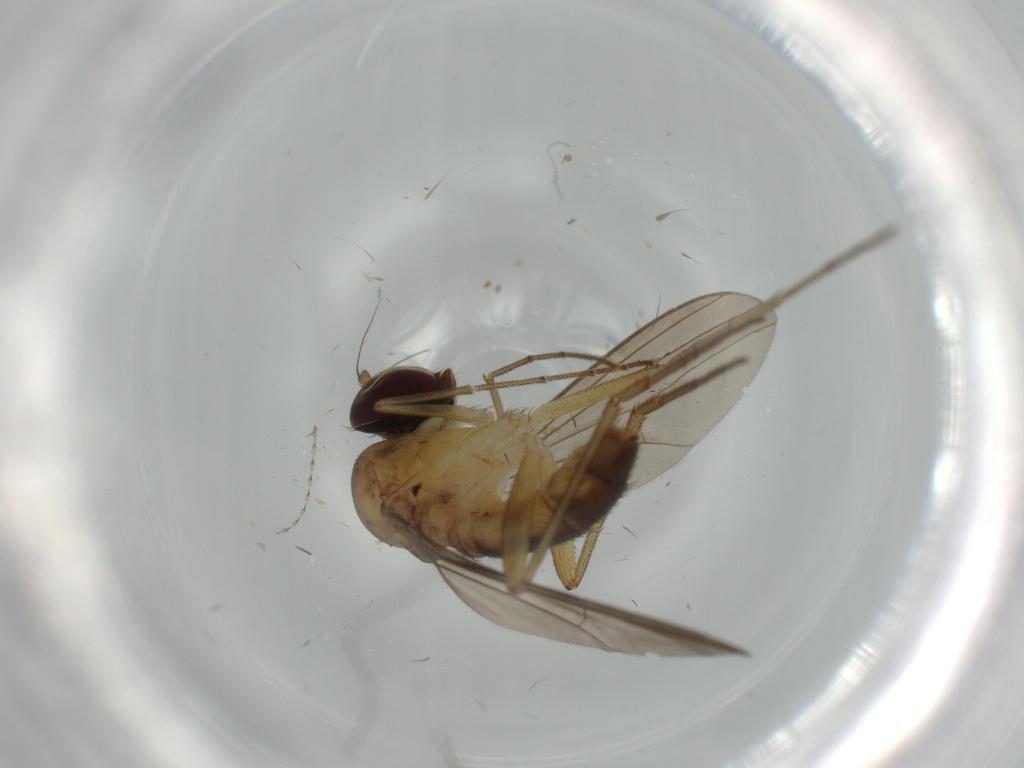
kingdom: Animalia
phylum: Arthropoda
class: Insecta
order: Diptera
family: Dolichopodidae
